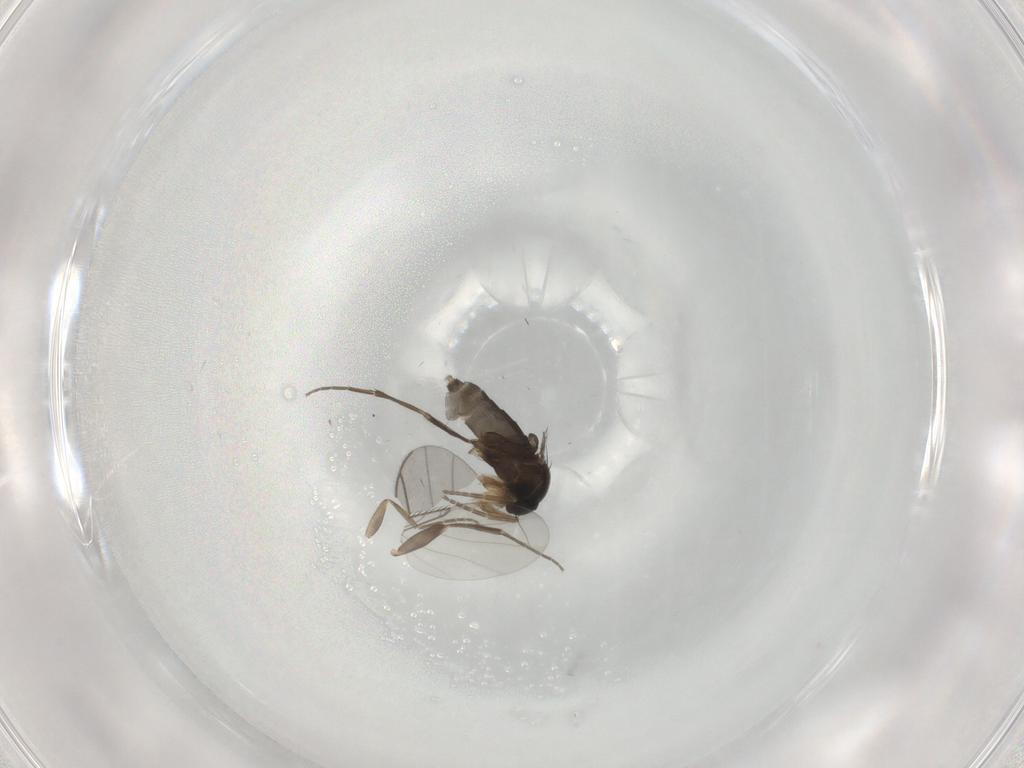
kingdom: Animalia
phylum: Arthropoda
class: Insecta
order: Diptera
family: Phoridae
